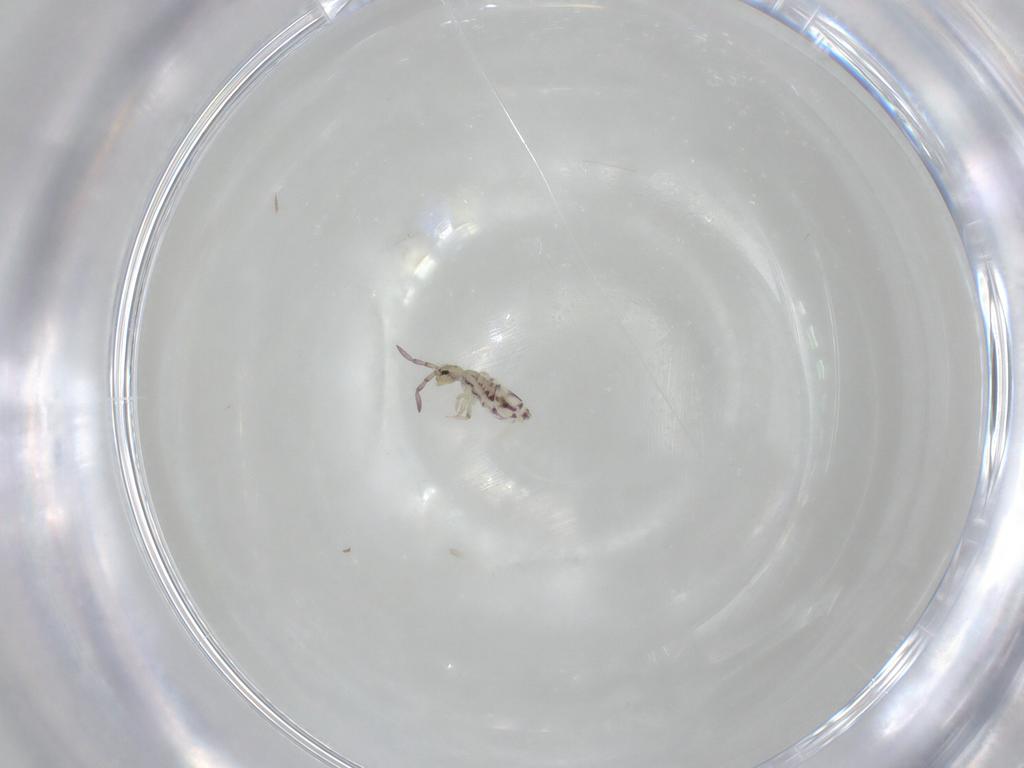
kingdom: Animalia
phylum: Arthropoda
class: Collembola
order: Entomobryomorpha
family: Entomobryidae
